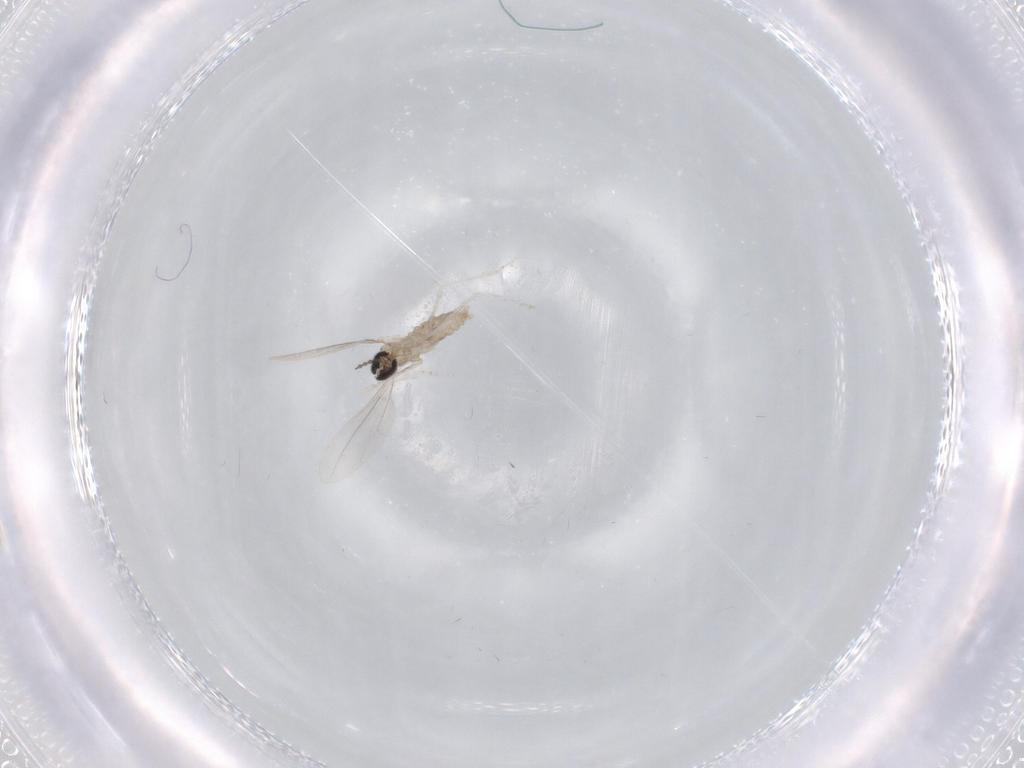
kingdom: Animalia
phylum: Arthropoda
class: Insecta
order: Diptera
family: Cecidomyiidae
